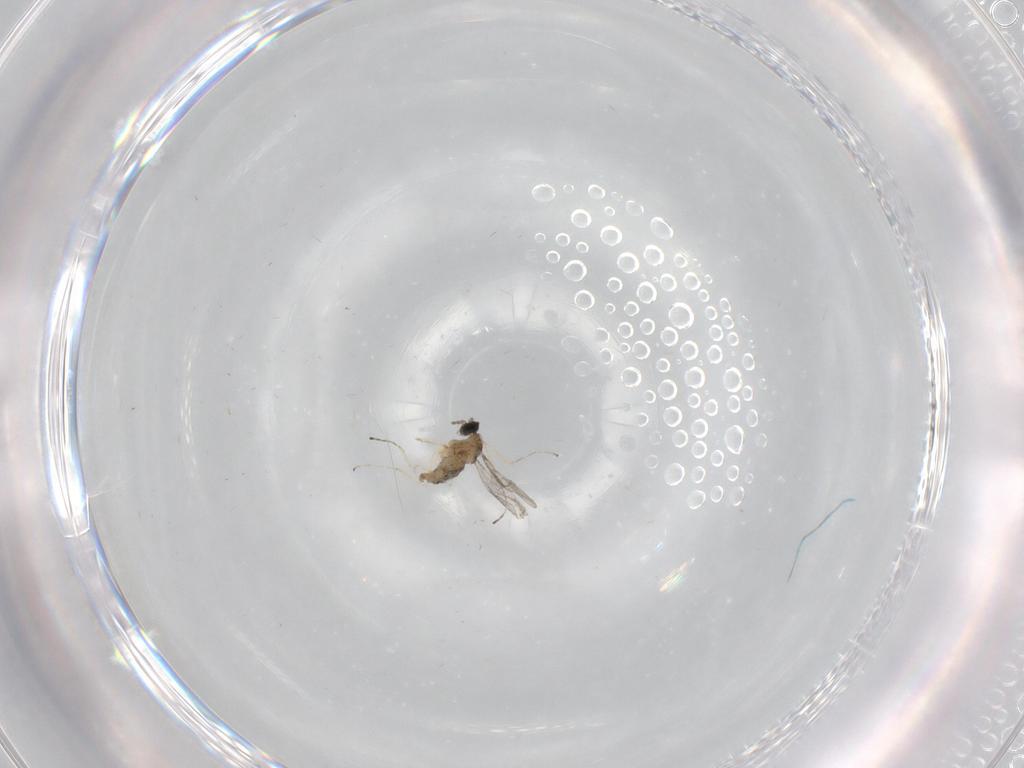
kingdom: Animalia
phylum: Arthropoda
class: Insecta
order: Diptera
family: Cecidomyiidae
